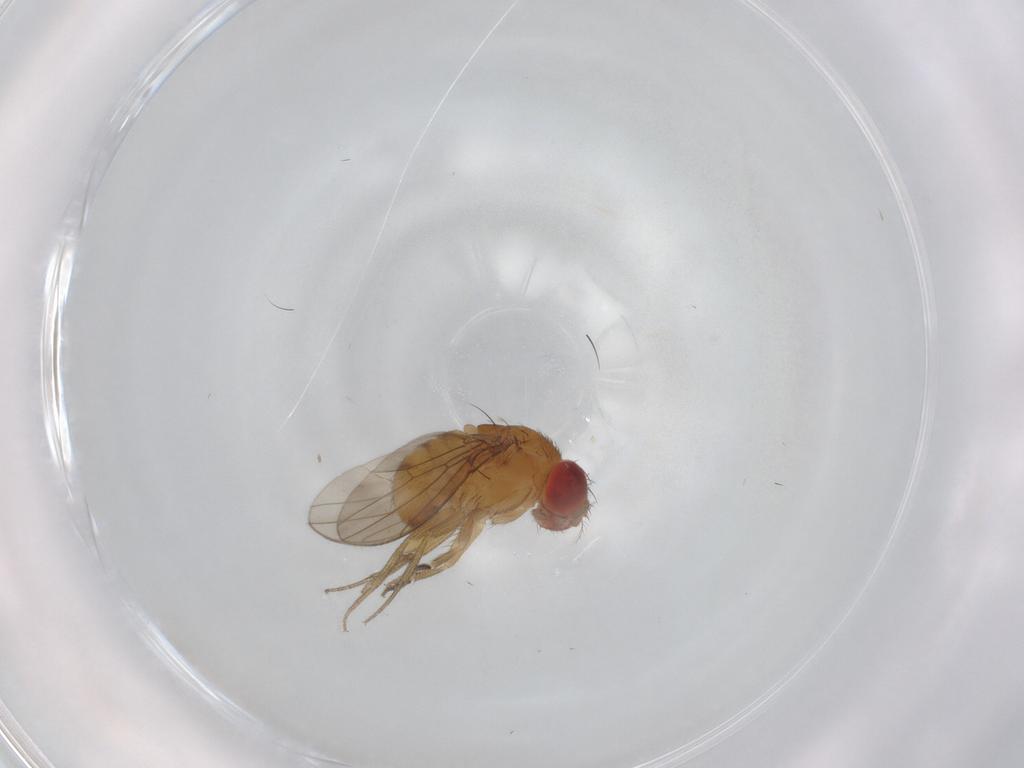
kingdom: Animalia
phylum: Arthropoda
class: Insecta
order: Diptera
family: Drosophilidae
